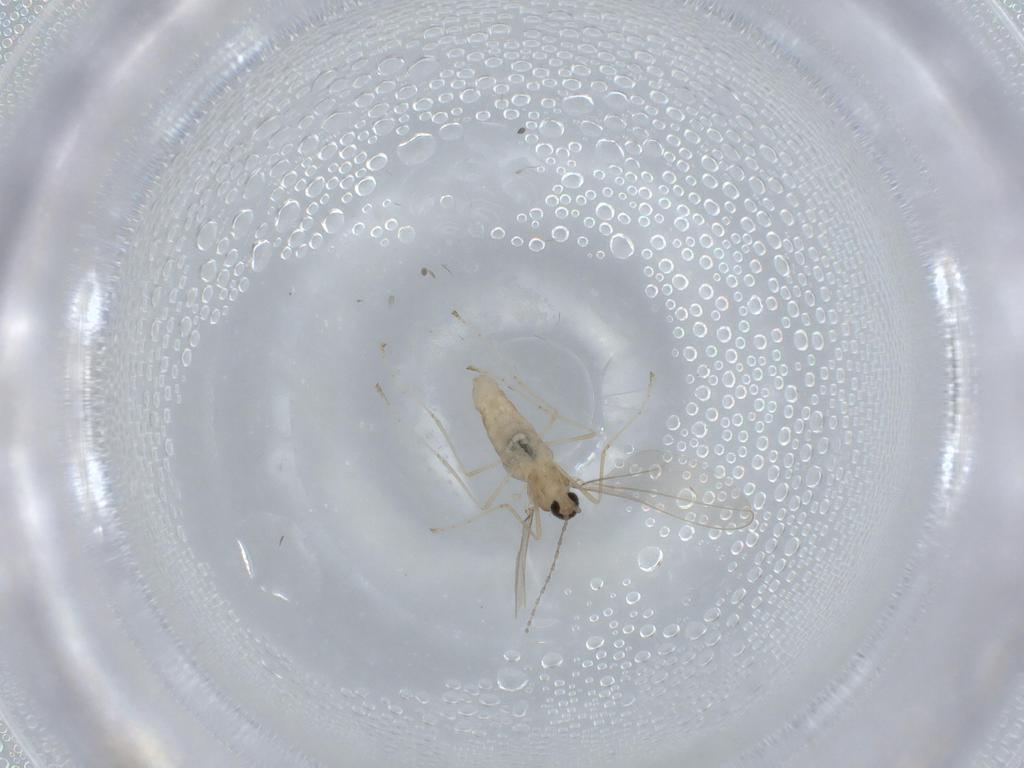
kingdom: Animalia
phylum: Arthropoda
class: Insecta
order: Diptera
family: Cecidomyiidae
